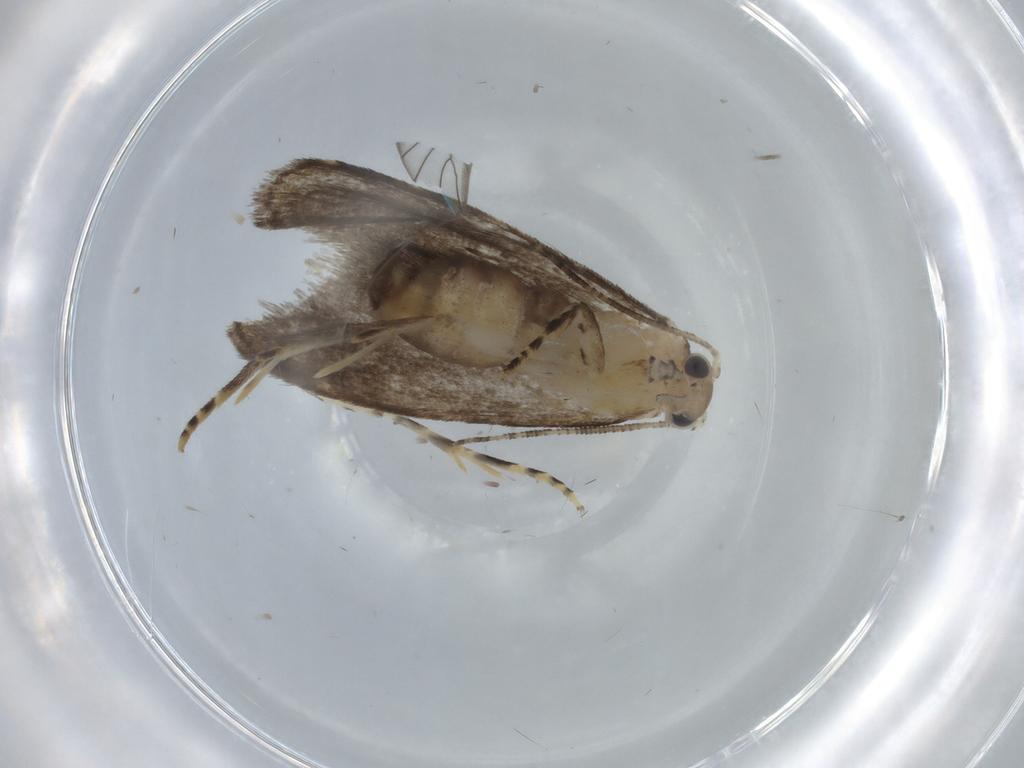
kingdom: Animalia
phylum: Arthropoda
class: Insecta
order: Lepidoptera
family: Tineidae
